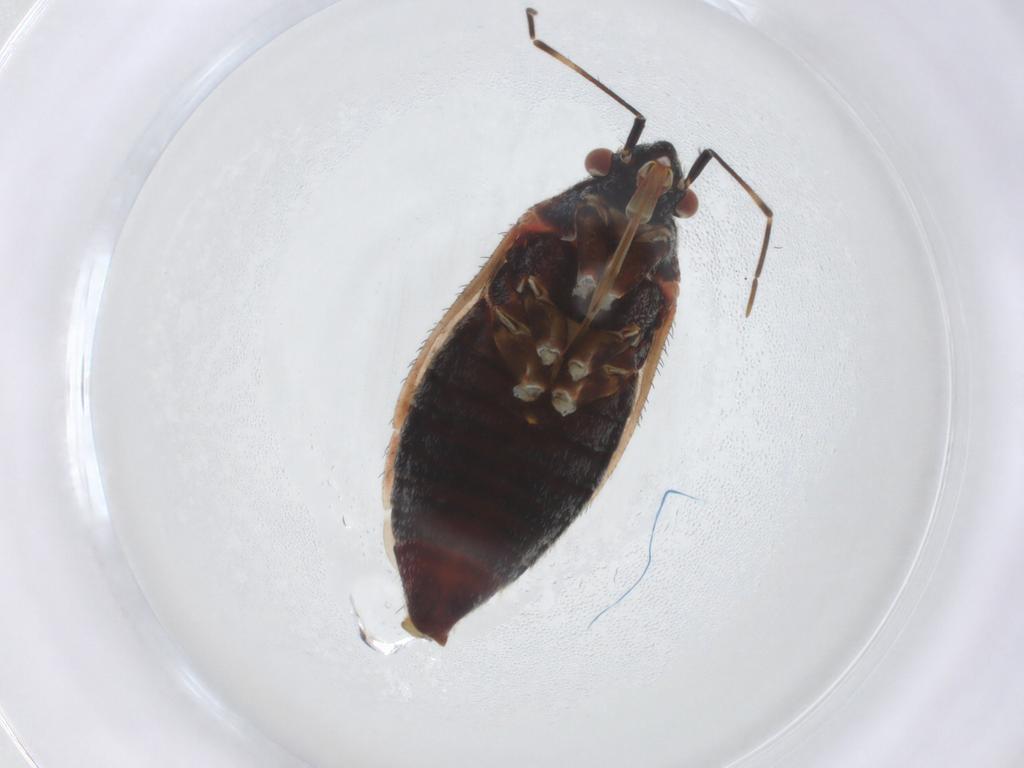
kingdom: Animalia
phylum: Arthropoda
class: Insecta
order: Hemiptera
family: Miridae
